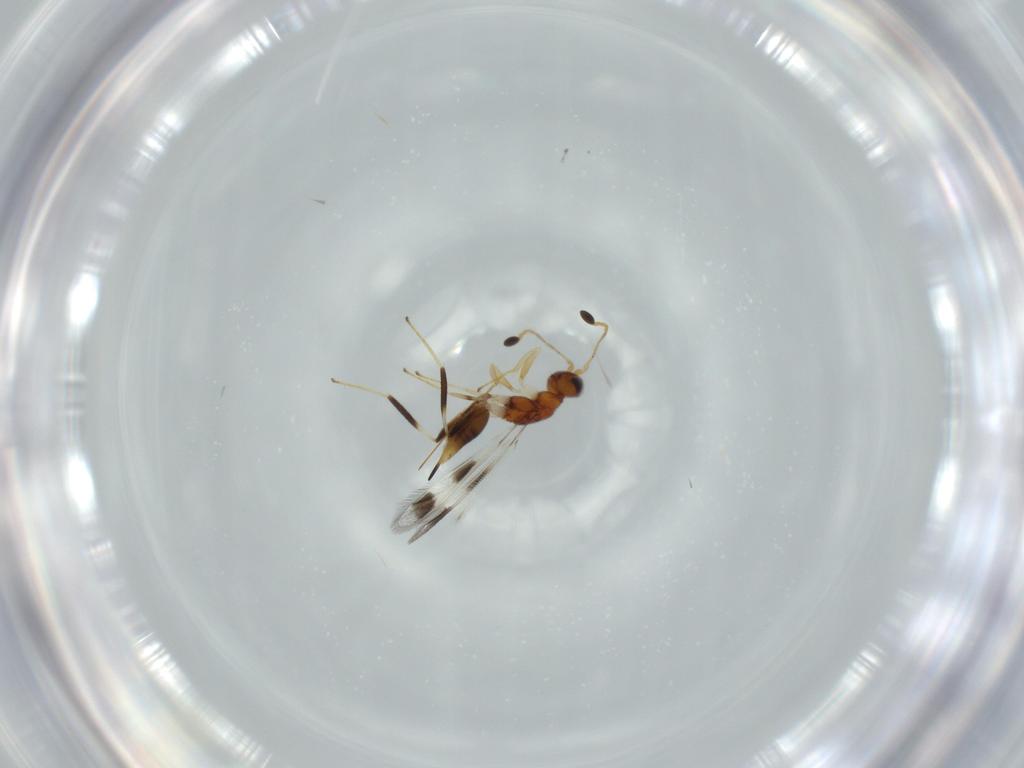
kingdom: Animalia
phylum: Arthropoda
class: Insecta
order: Hymenoptera
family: Mymaridae
